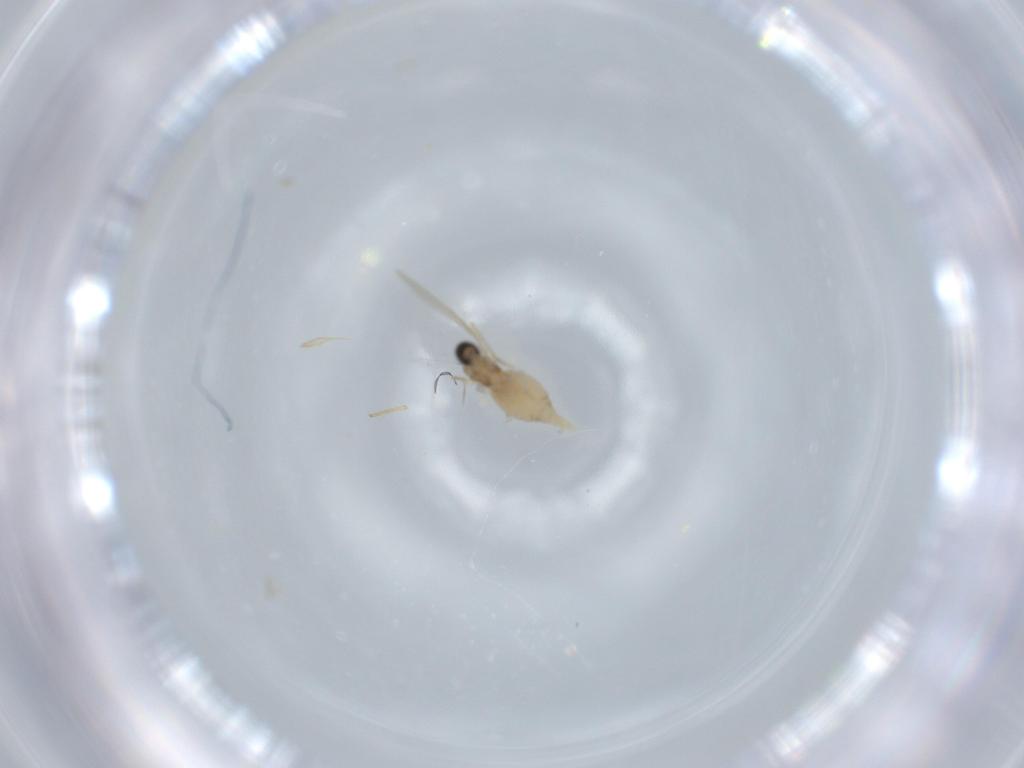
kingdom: Animalia
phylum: Arthropoda
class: Insecta
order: Diptera
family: Cecidomyiidae
